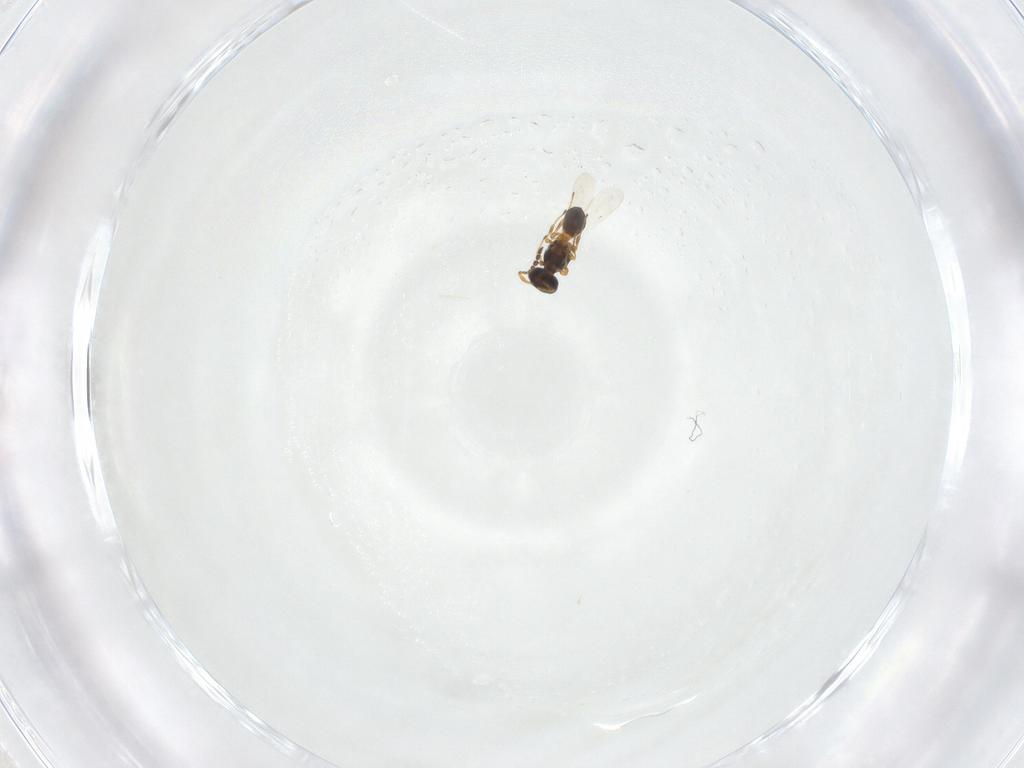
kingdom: Animalia
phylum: Arthropoda
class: Insecta
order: Hymenoptera
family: Platygastridae
